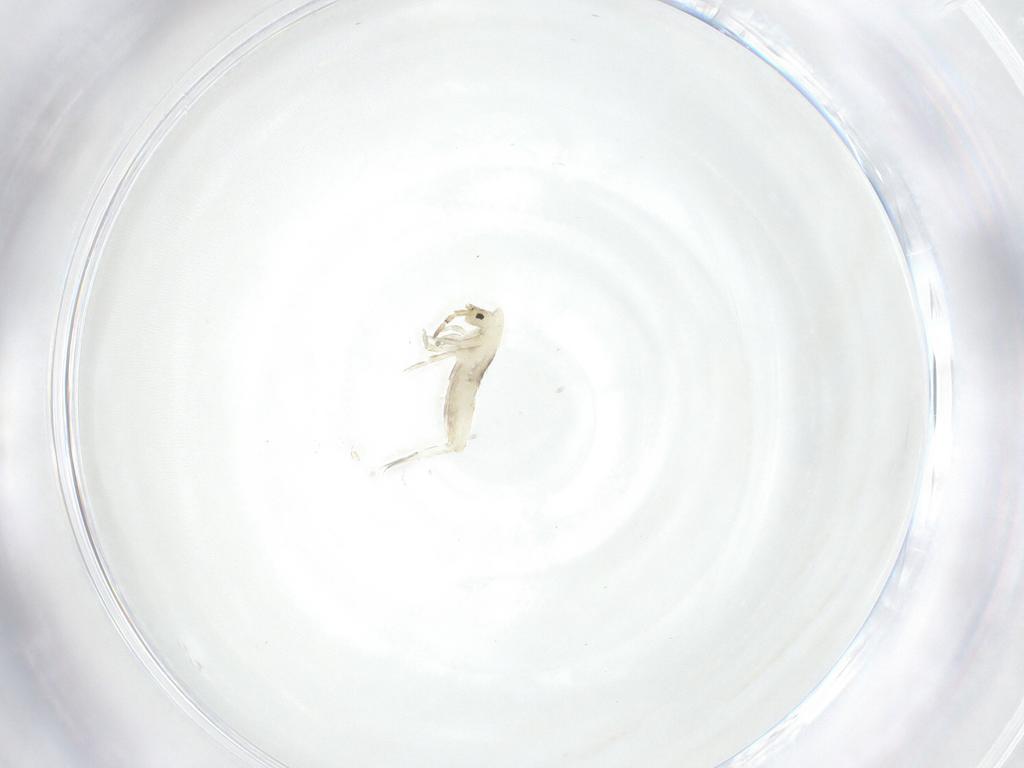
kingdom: Animalia
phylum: Arthropoda
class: Collembola
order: Entomobryomorpha
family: Entomobryidae
